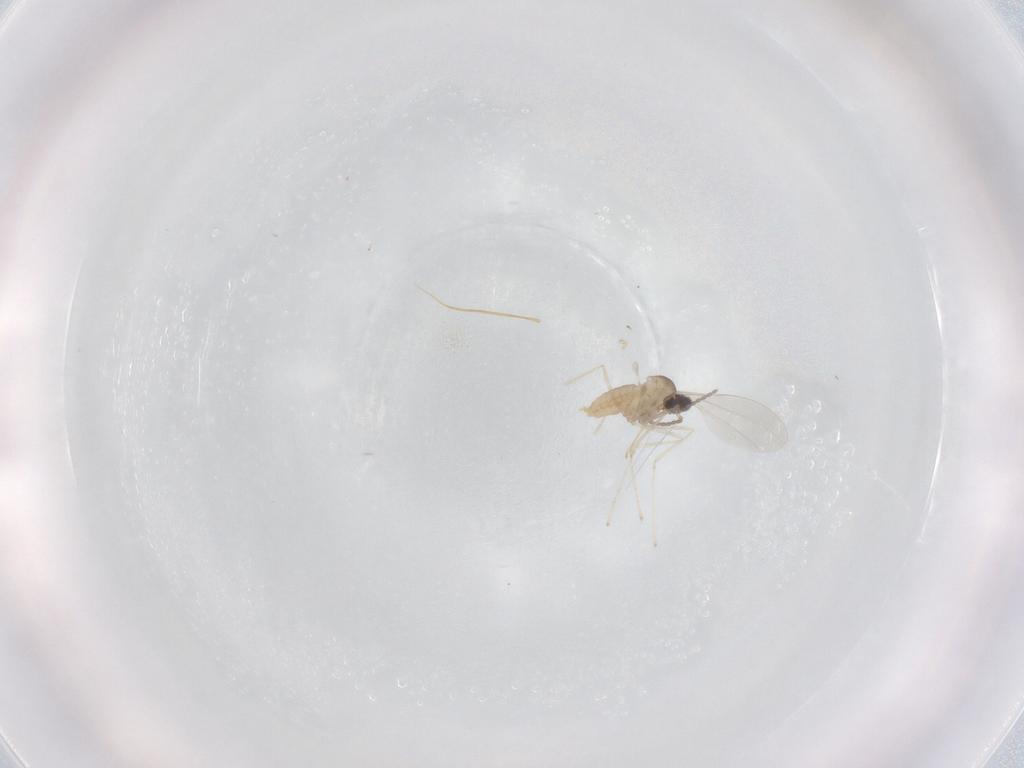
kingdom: Animalia
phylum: Arthropoda
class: Insecta
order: Diptera
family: Cecidomyiidae
